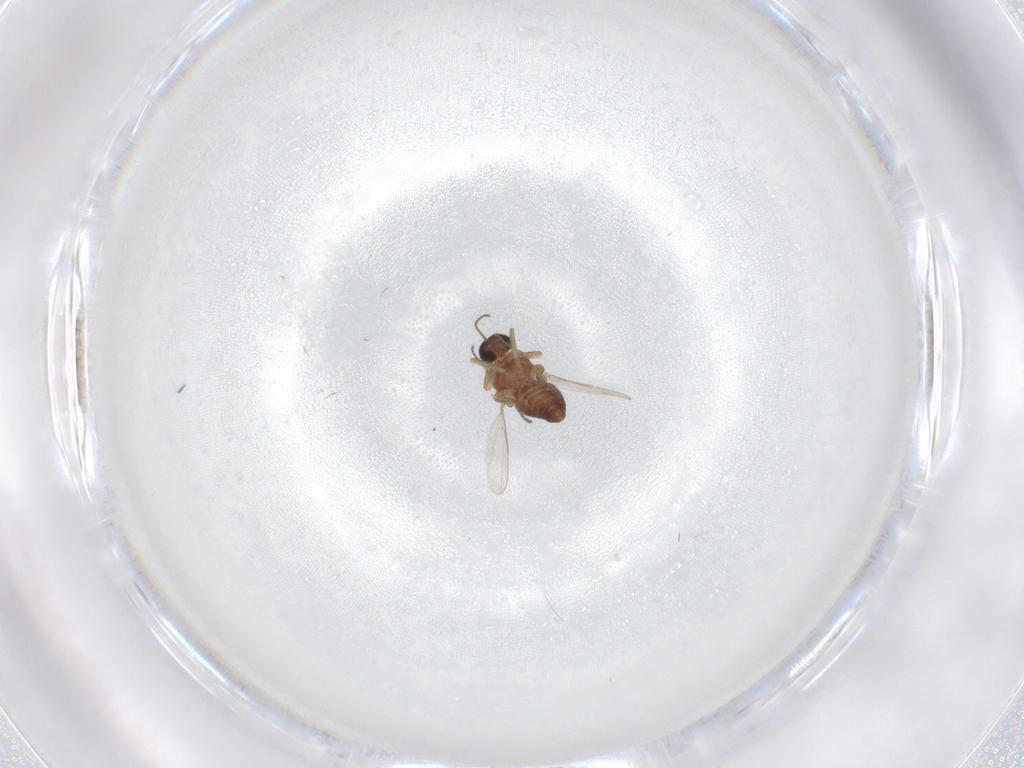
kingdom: Animalia
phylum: Arthropoda
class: Insecta
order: Diptera
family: Ceratopogonidae
